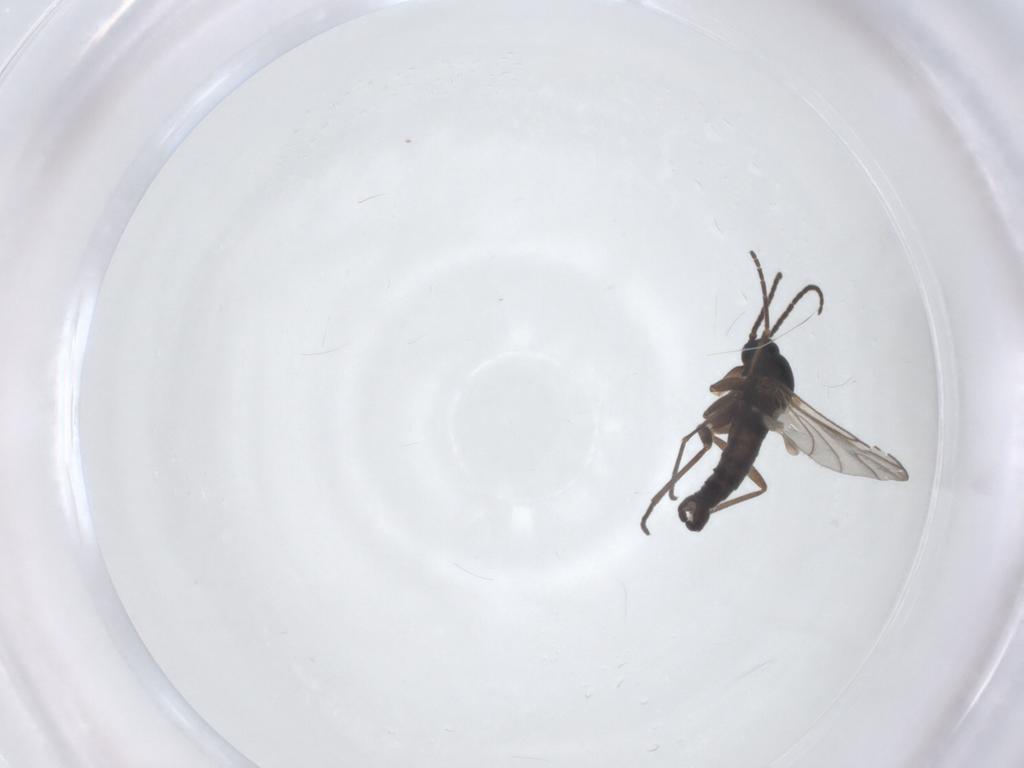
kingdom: Animalia
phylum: Arthropoda
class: Insecta
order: Diptera
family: Sciaridae
